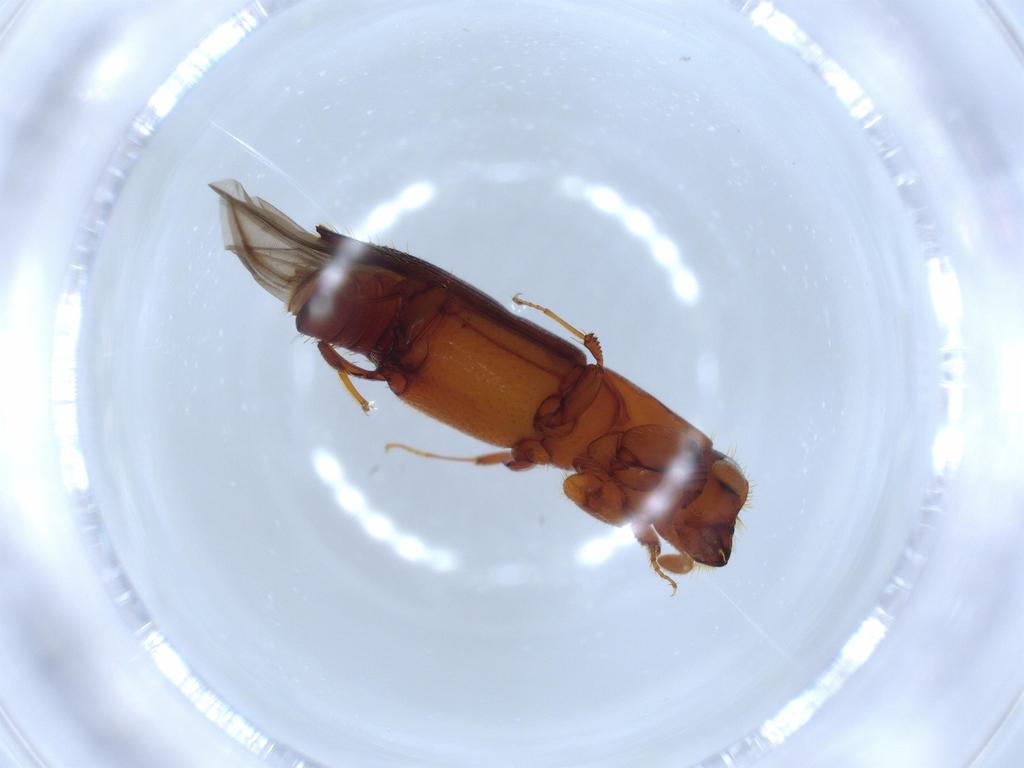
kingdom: Animalia
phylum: Arthropoda
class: Insecta
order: Coleoptera
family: Curculionidae
